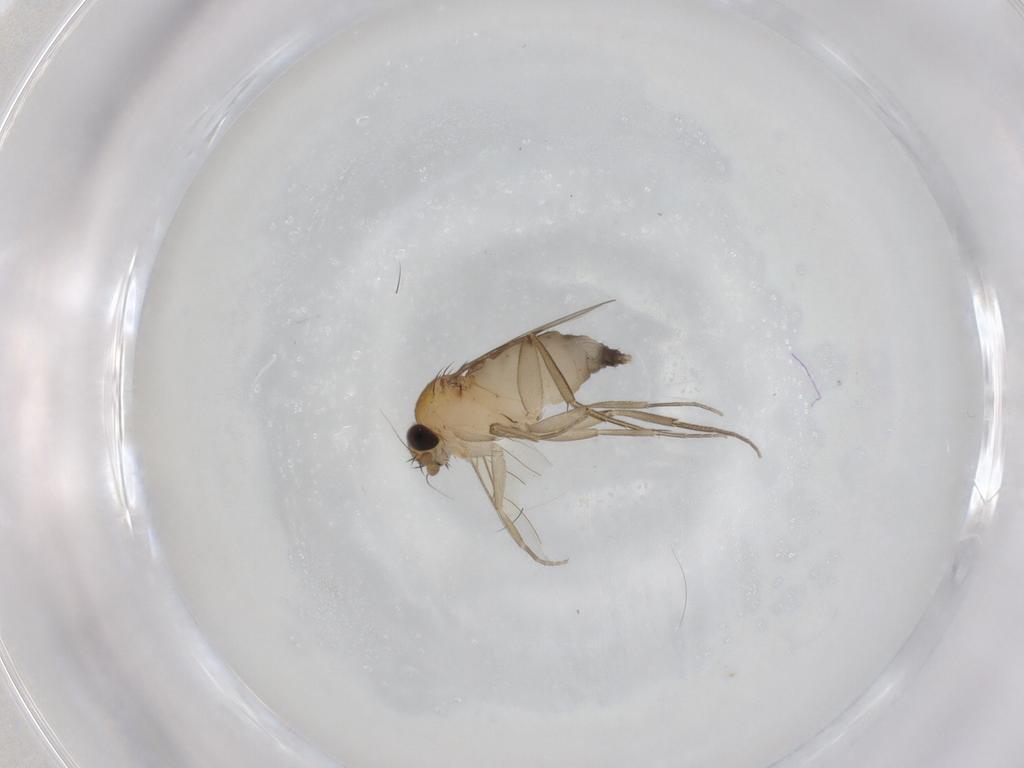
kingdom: Animalia
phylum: Arthropoda
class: Insecta
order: Diptera
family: Phoridae
